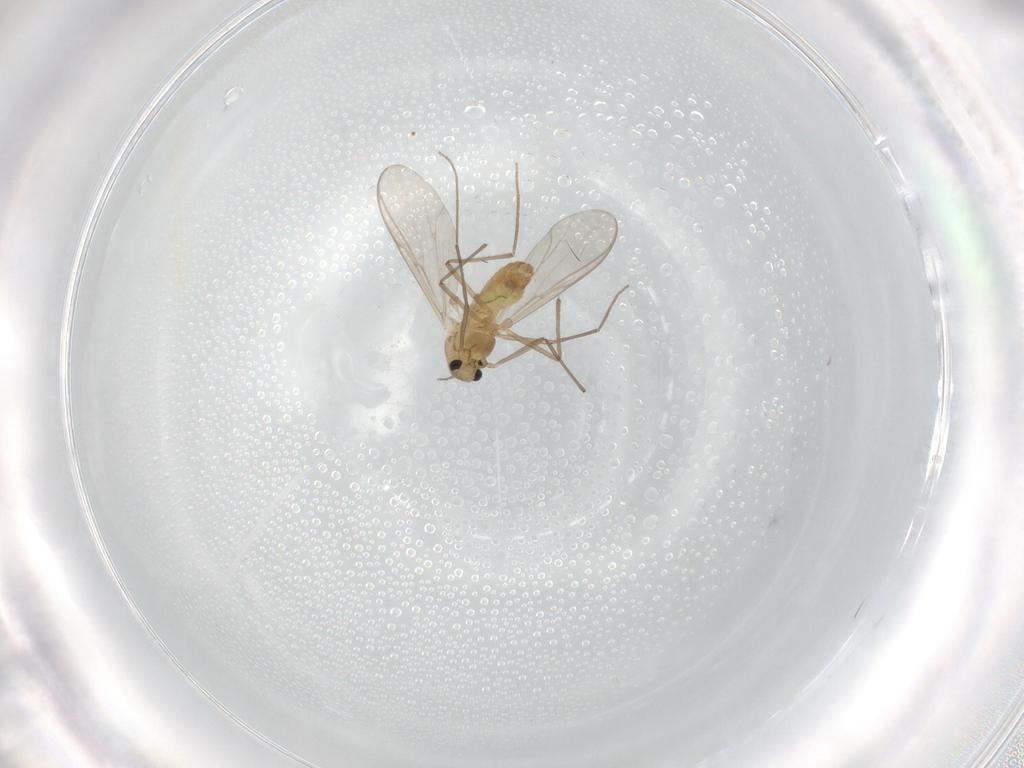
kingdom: Animalia
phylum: Arthropoda
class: Insecta
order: Diptera
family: Chironomidae
